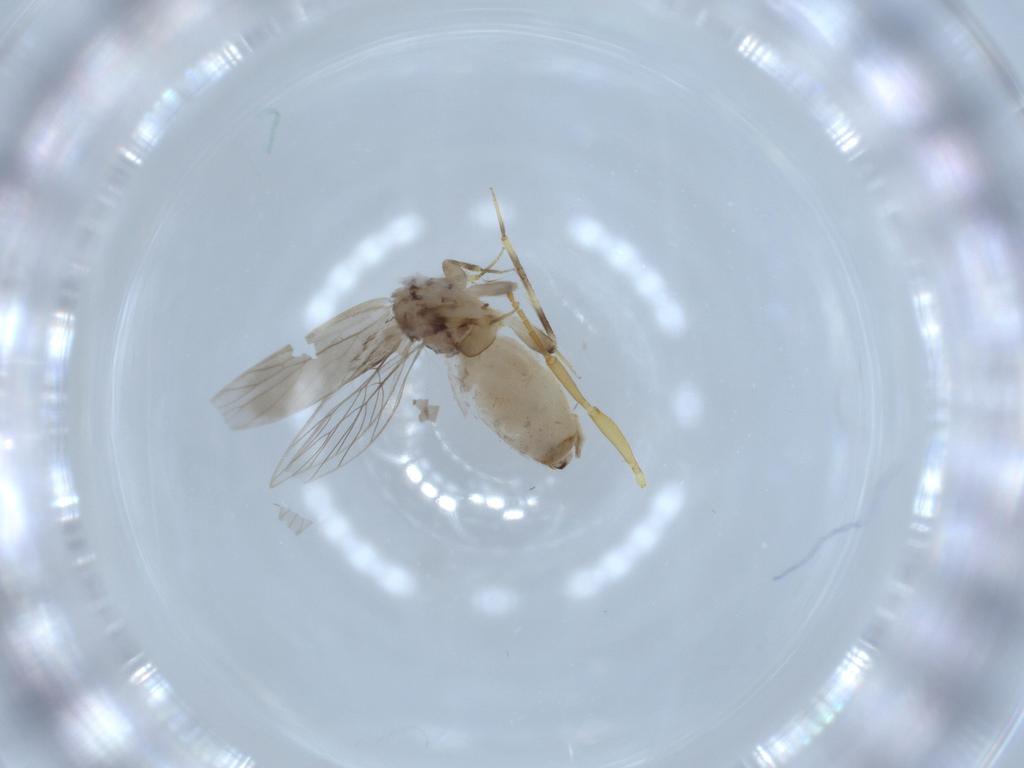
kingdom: Animalia
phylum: Arthropoda
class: Insecta
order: Psocodea
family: Lepidopsocidae
